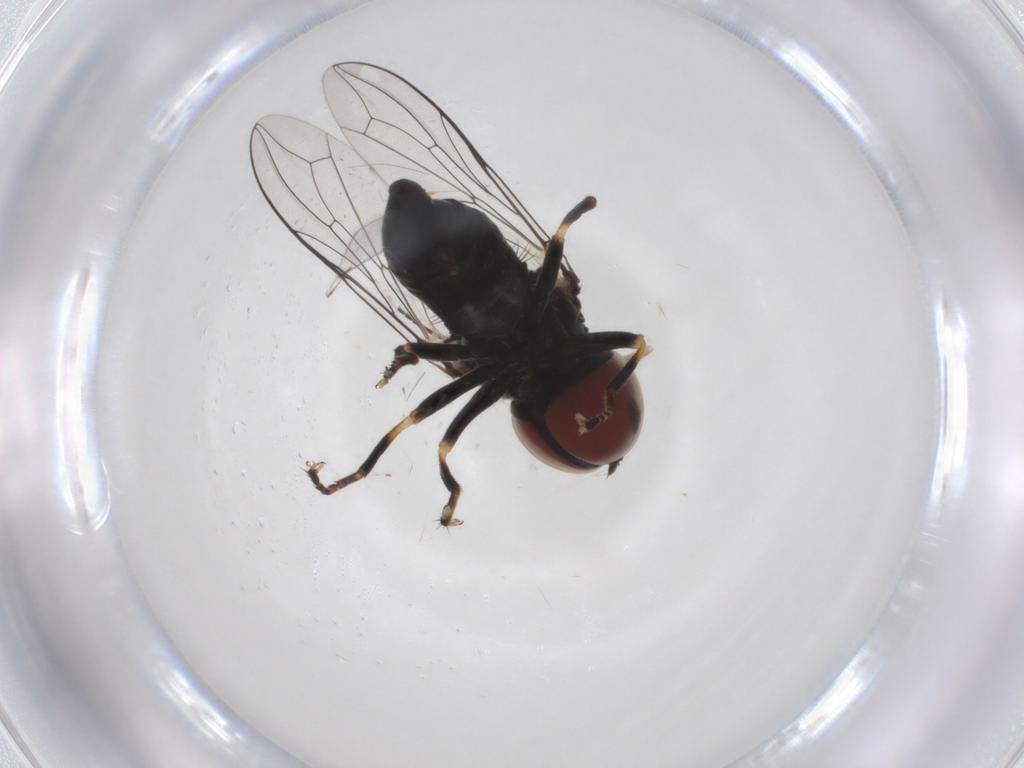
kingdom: Animalia
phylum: Arthropoda
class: Insecta
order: Diptera
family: Pipunculidae
